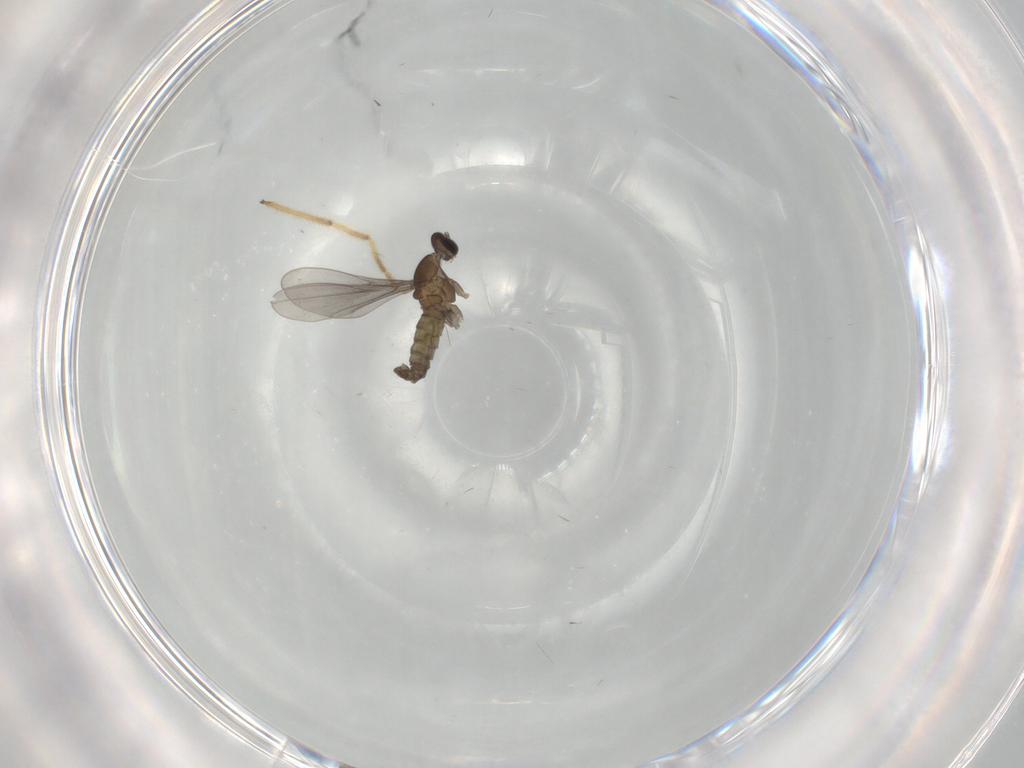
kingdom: Animalia
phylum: Arthropoda
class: Insecta
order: Diptera
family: Cecidomyiidae
